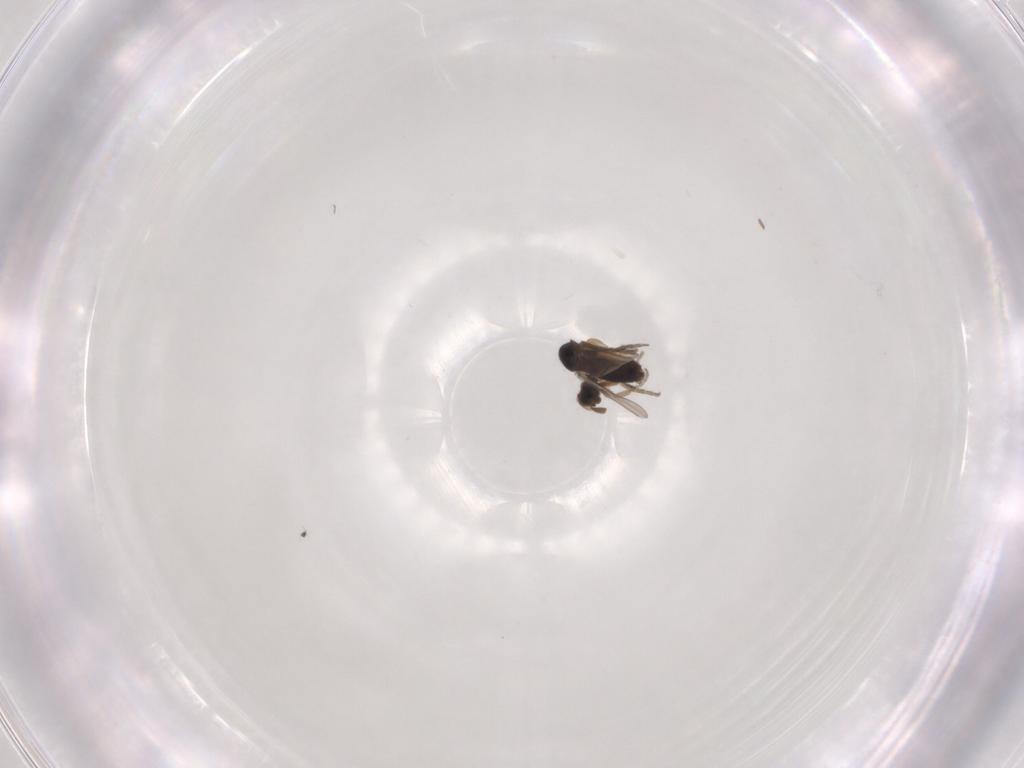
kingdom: Animalia
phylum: Arthropoda
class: Insecta
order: Diptera
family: Phoridae
